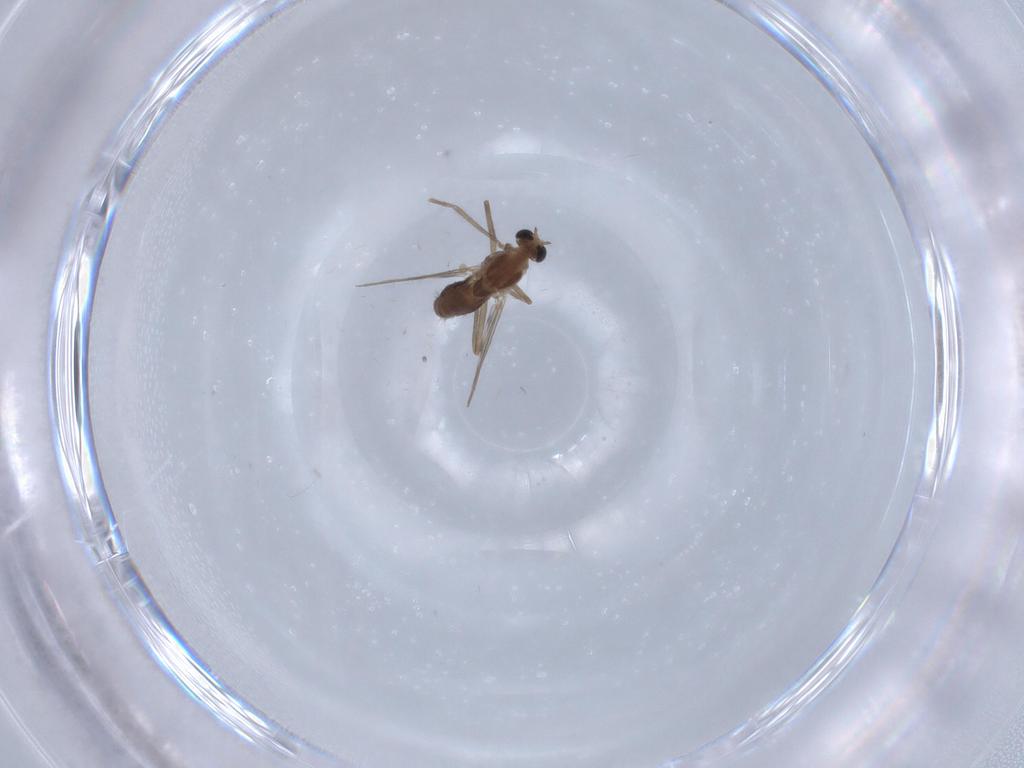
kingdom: Animalia
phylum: Arthropoda
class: Insecta
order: Diptera
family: Chironomidae
